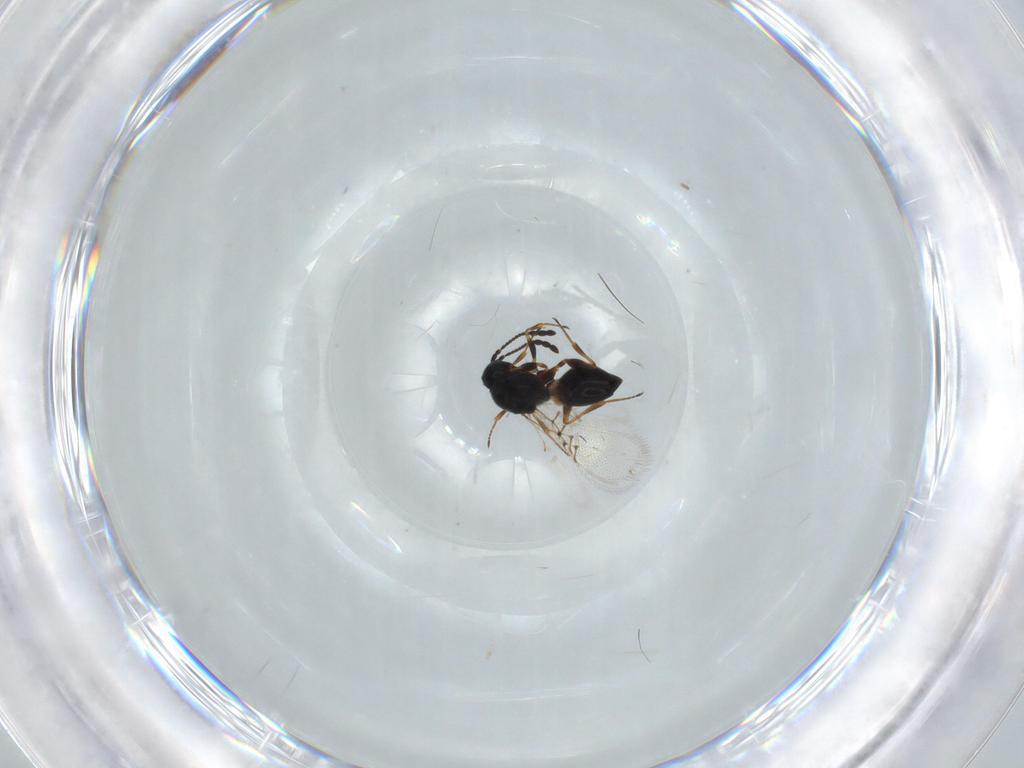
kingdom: Animalia
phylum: Arthropoda
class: Insecta
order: Hymenoptera
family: Figitidae
